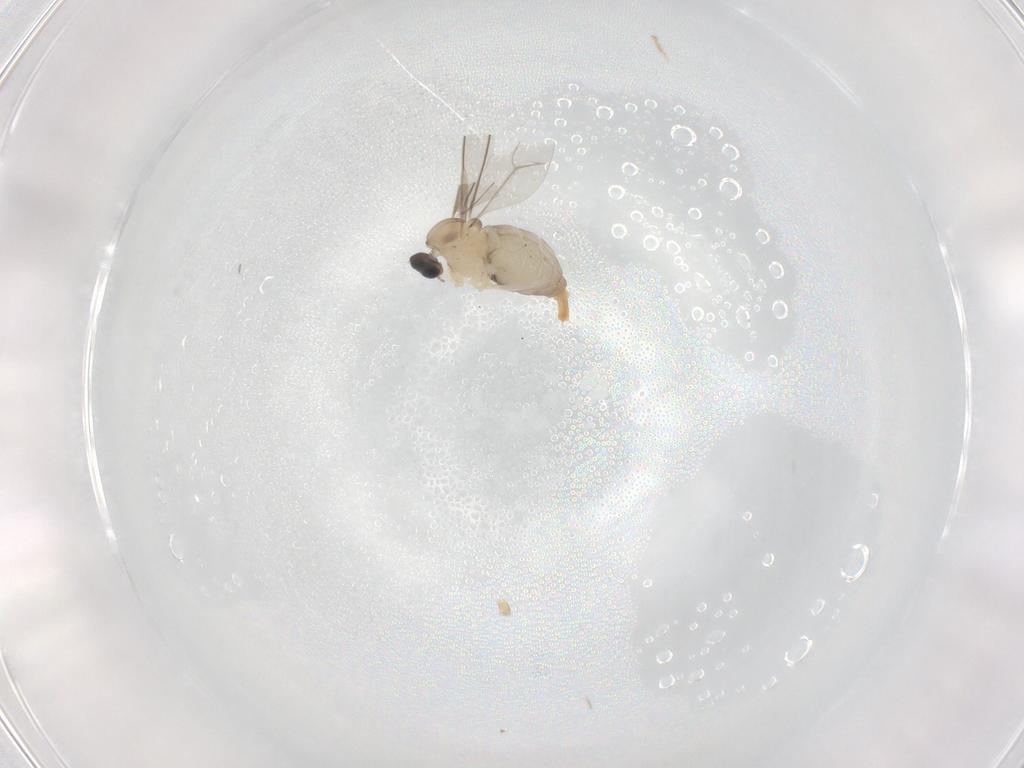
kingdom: Animalia
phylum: Arthropoda
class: Insecta
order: Diptera
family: Cecidomyiidae
